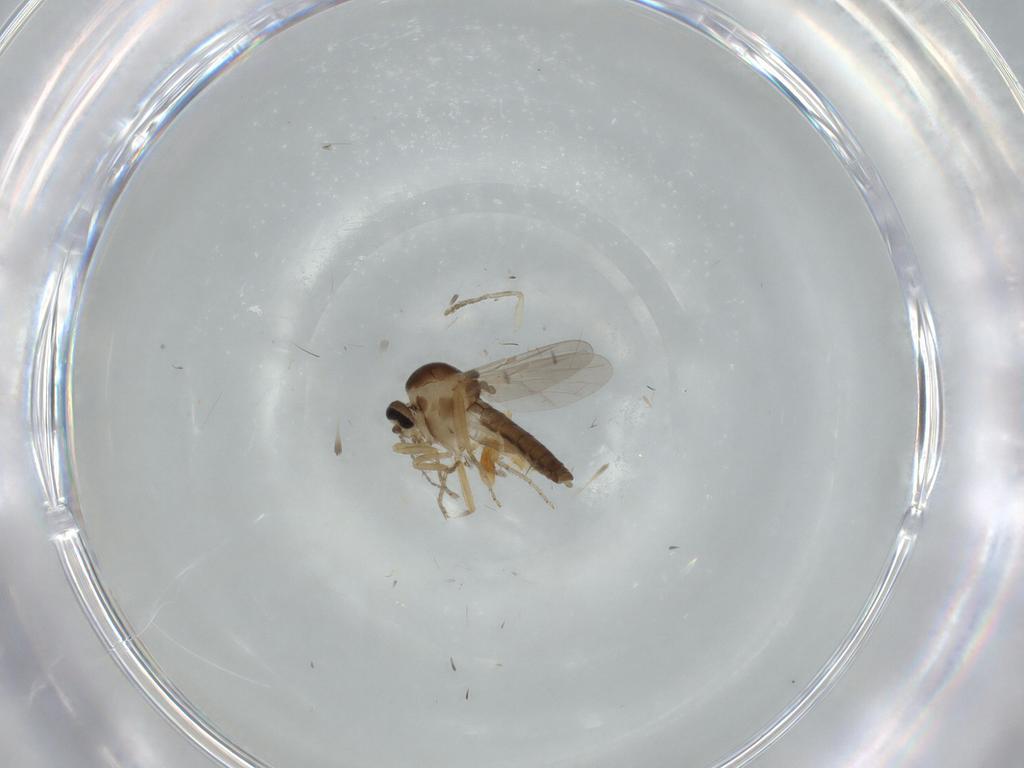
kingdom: Animalia
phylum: Arthropoda
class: Insecta
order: Diptera
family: Ceratopogonidae
